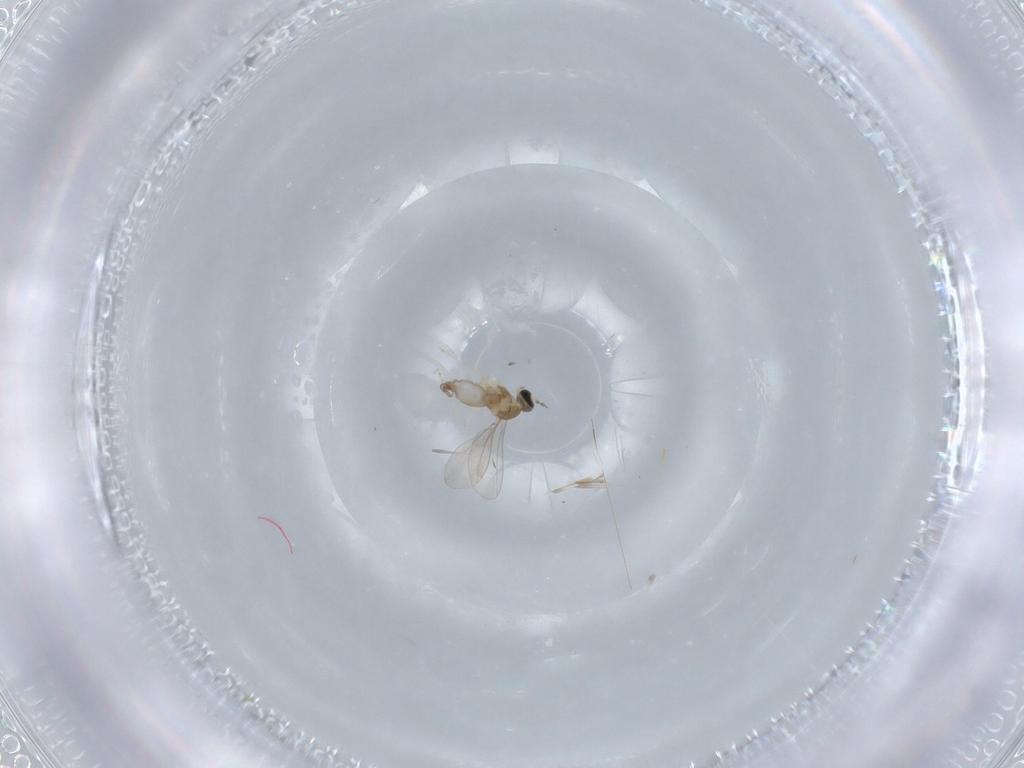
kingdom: Animalia
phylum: Arthropoda
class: Insecta
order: Diptera
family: Cecidomyiidae
